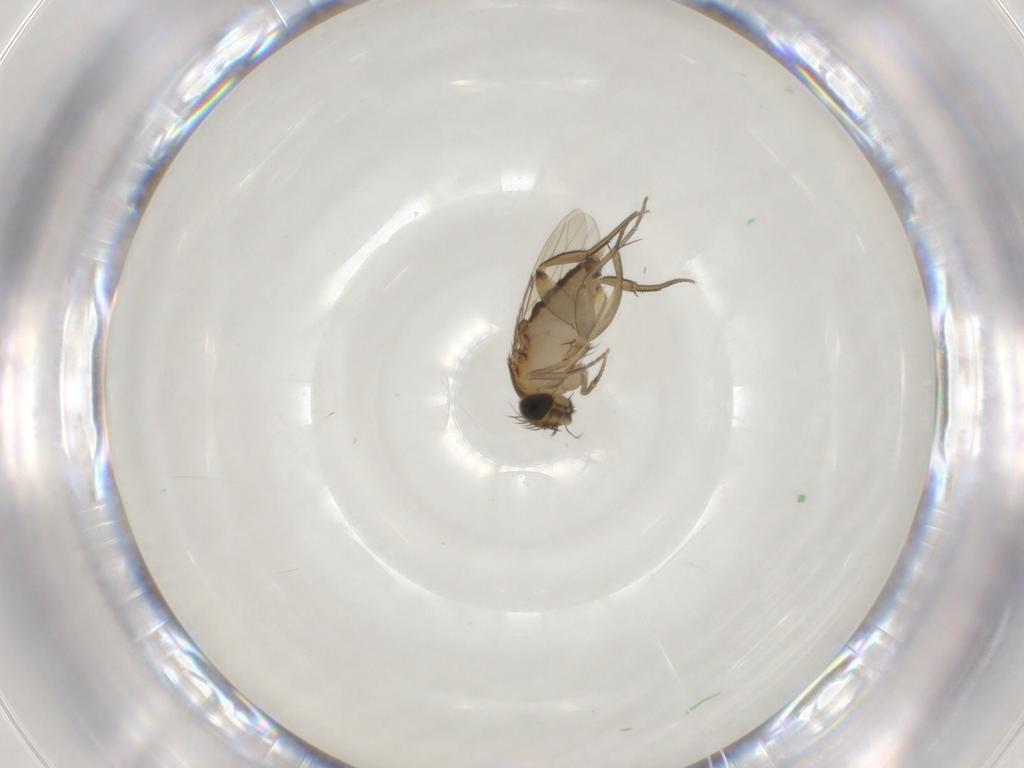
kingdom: Animalia
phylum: Arthropoda
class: Insecta
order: Diptera
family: Phoridae
